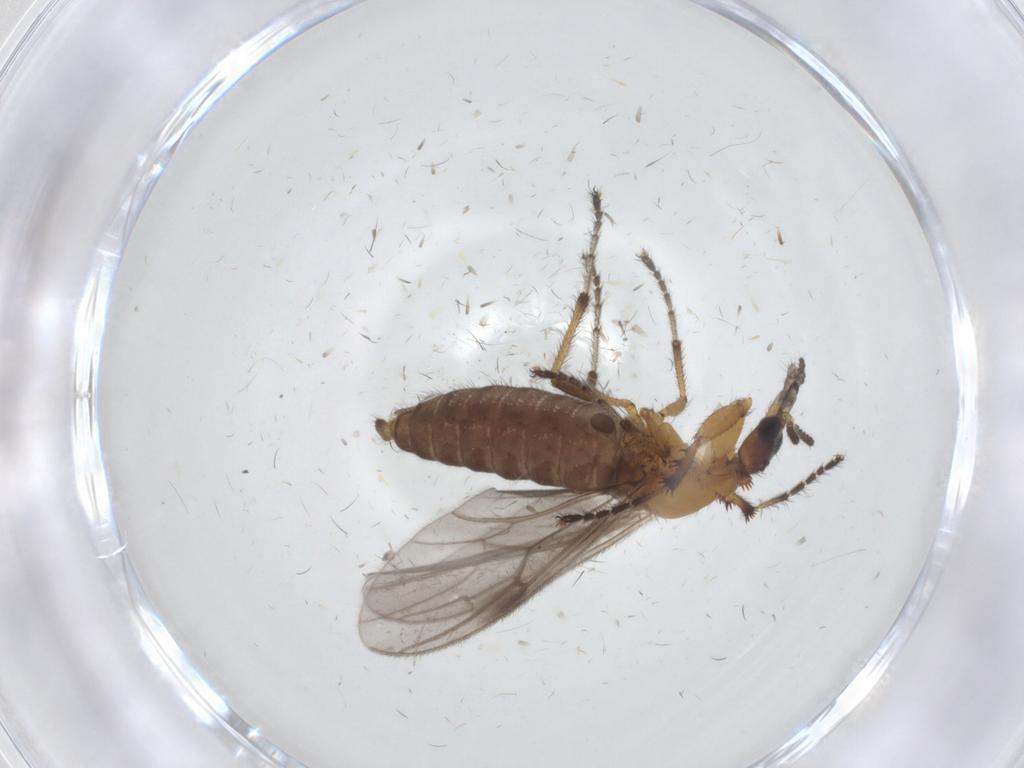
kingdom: Animalia
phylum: Arthropoda
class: Insecta
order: Diptera
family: Bibionidae
